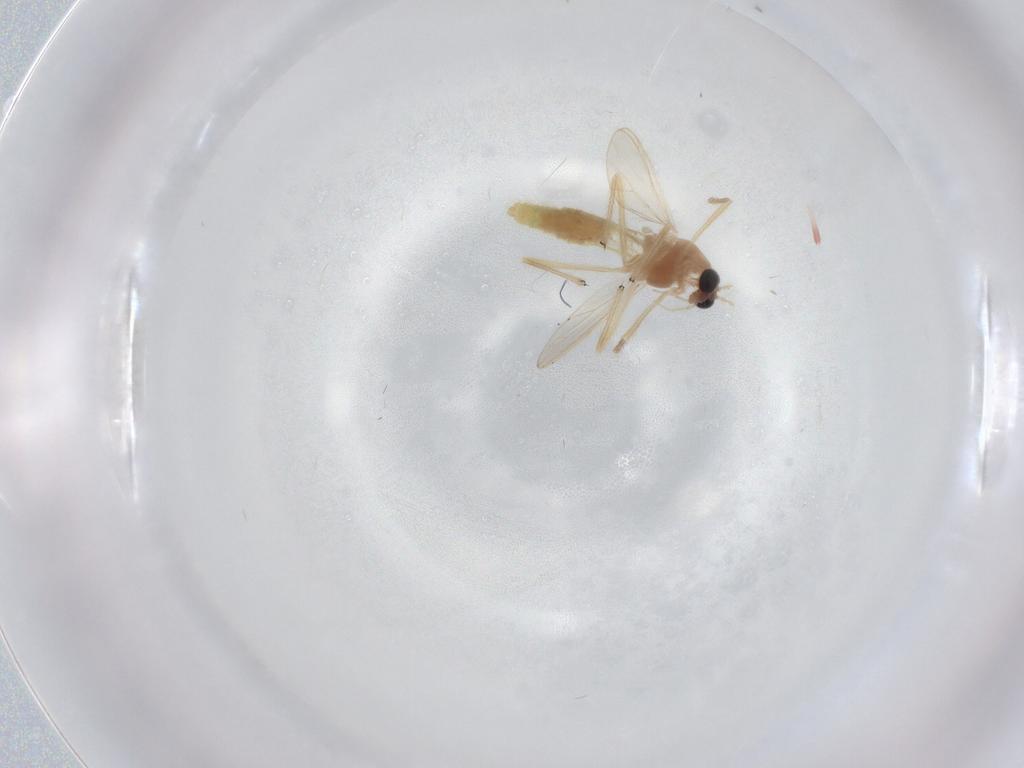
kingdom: Animalia
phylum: Arthropoda
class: Insecta
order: Diptera
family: Chironomidae
